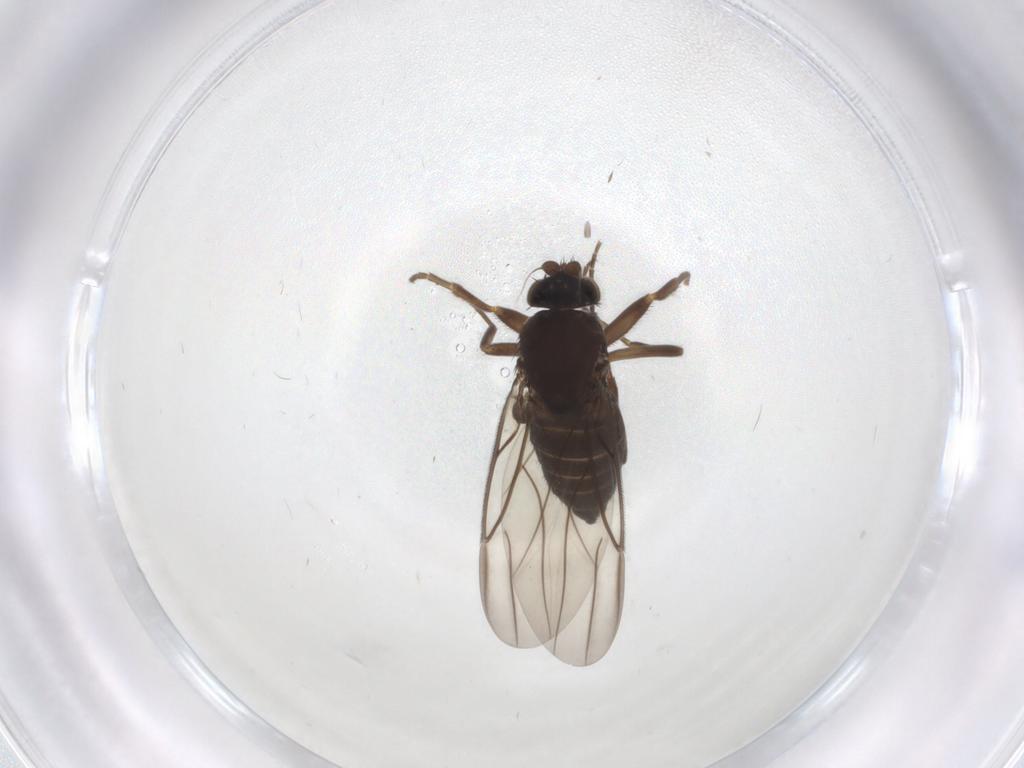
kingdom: Animalia
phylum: Arthropoda
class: Insecta
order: Diptera
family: Phoridae
